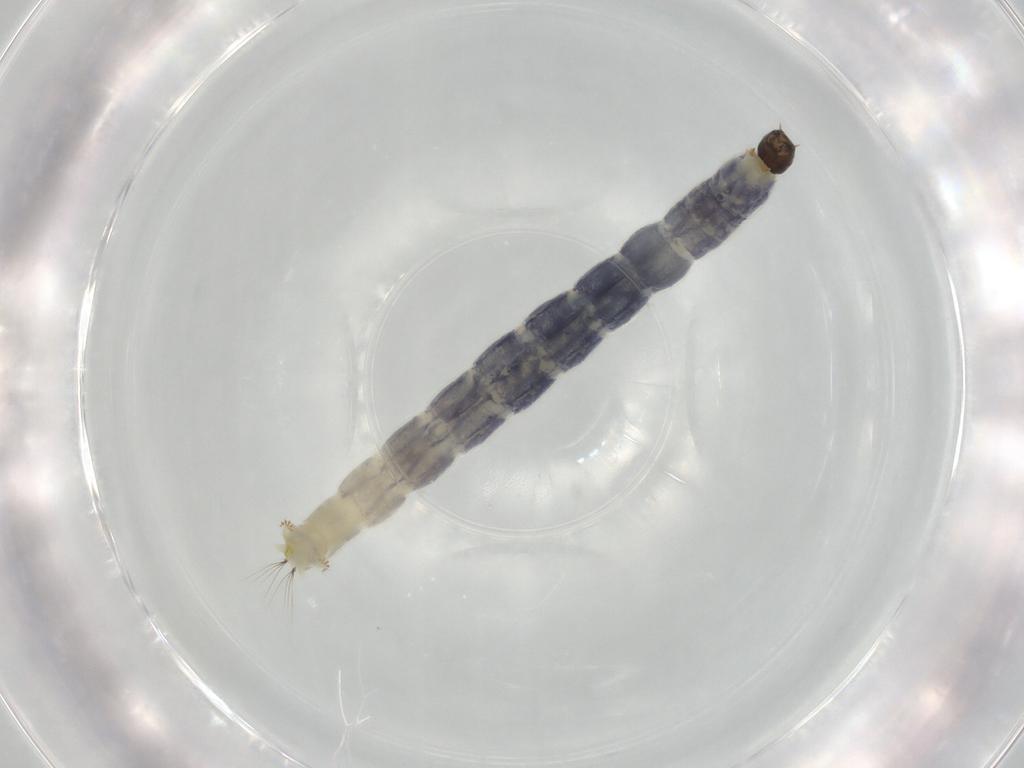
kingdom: Animalia
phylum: Arthropoda
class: Insecta
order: Diptera
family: Chironomidae
